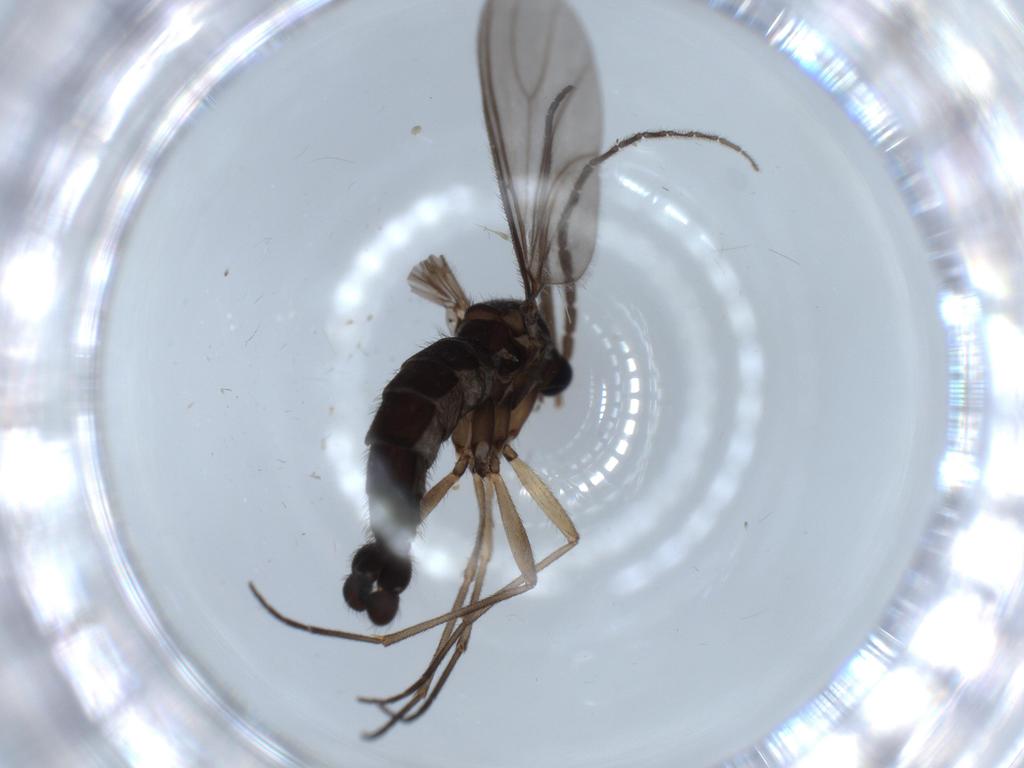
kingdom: Animalia
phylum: Arthropoda
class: Insecta
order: Diptera
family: Sciaridae
